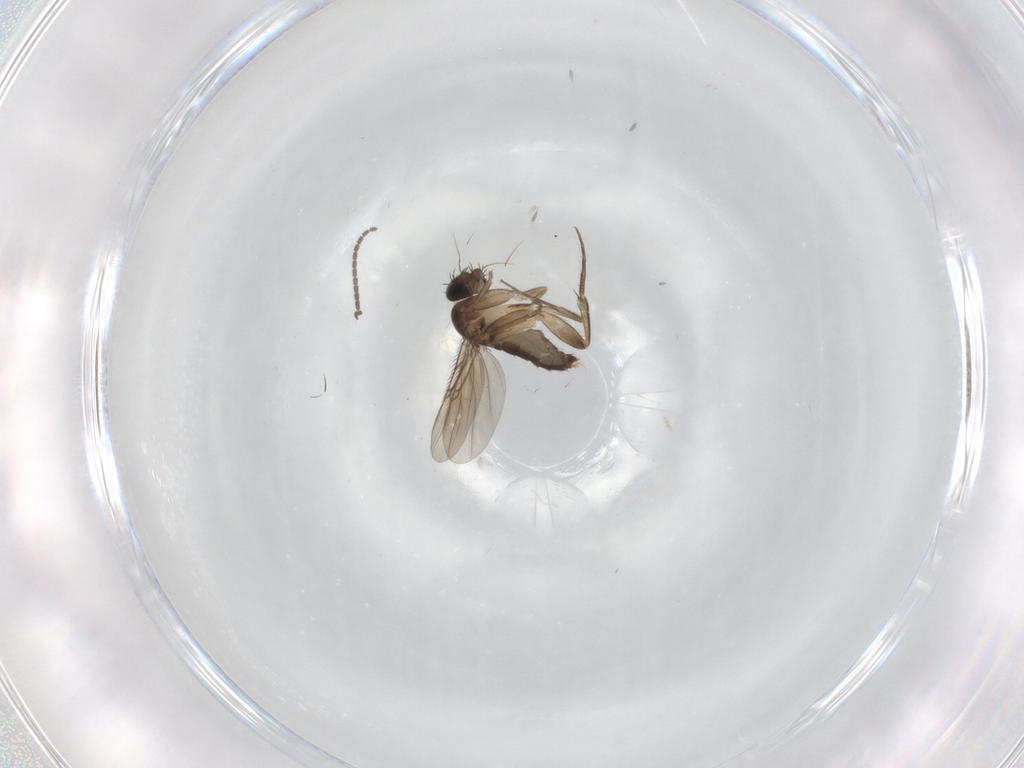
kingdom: Animalia
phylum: Arthropoda
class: Insecta
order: Diptera
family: Phoridae
